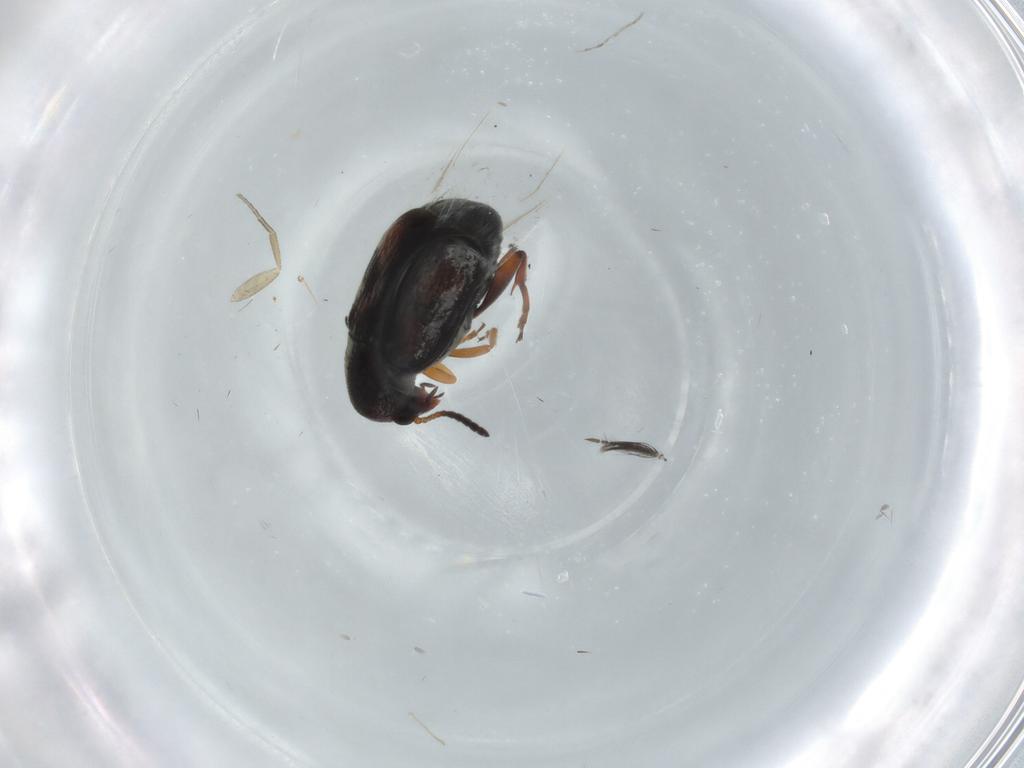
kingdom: Animalia
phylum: Arthropoda
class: Insecta
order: Coleoptera
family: Chrysomelidae
